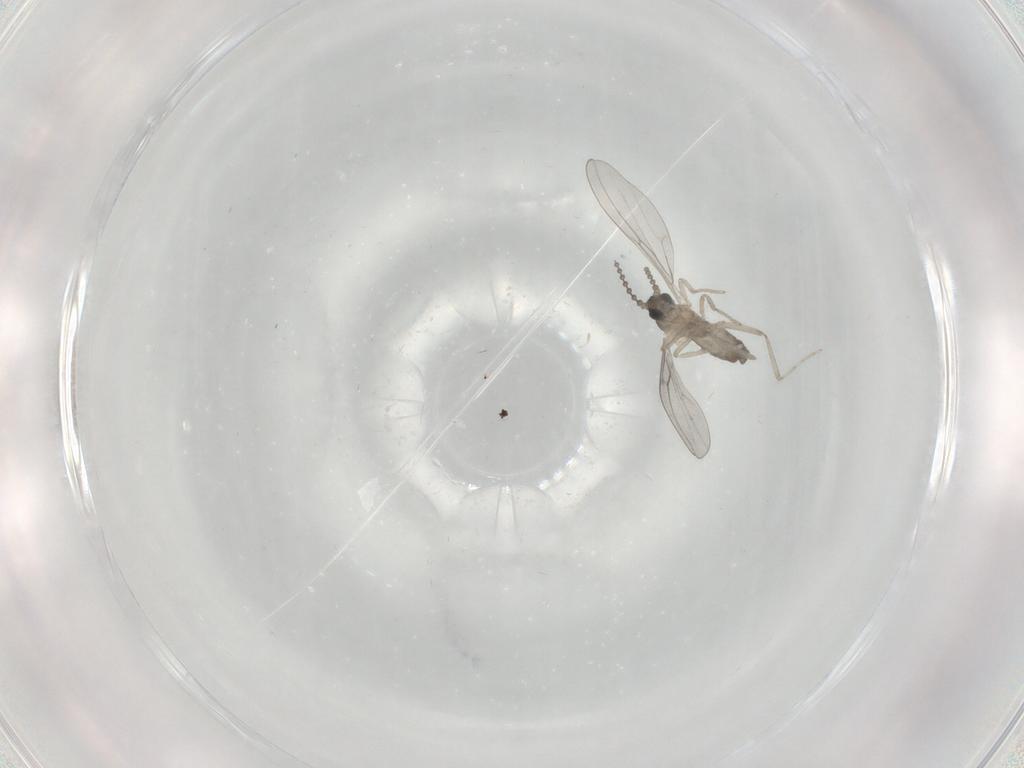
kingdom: Animalia
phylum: Arthropoda
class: Insecta
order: Diptera
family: Cecidomyiidae
